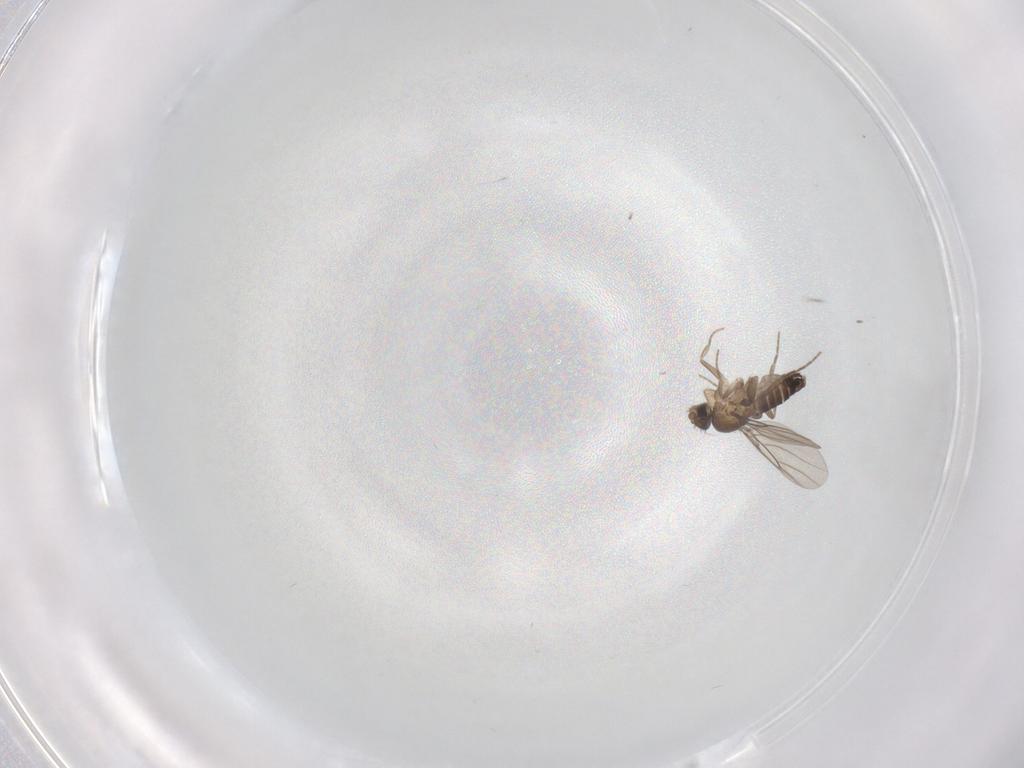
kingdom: Animalia
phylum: Arthropoda
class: Insecta
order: Diptera
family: Phoridae
